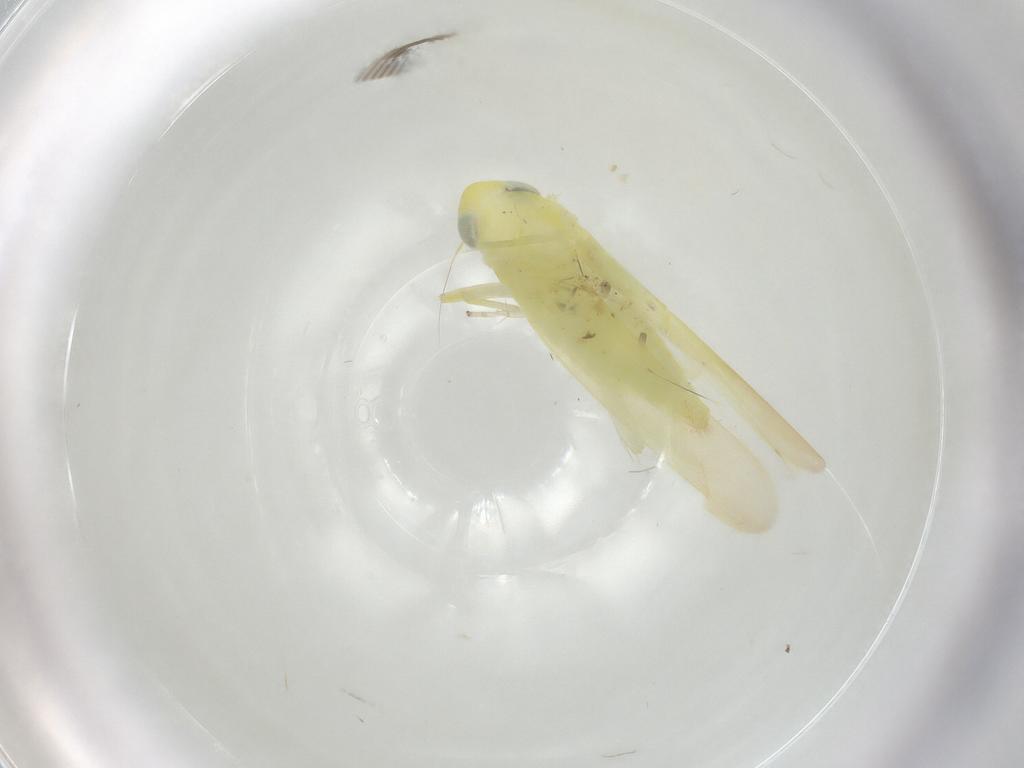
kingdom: Animalia
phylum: Arthropoda
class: Insecta
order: Hemiptera
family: Cicadellidae
